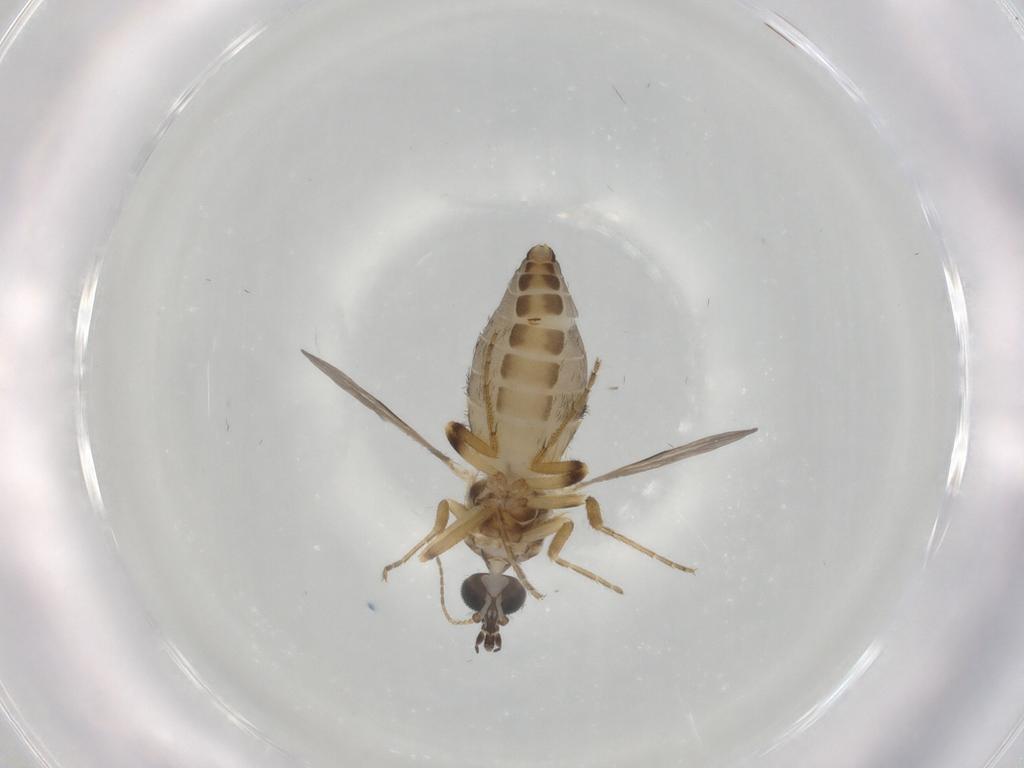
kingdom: Animalia
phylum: Arthropoda
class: Insecta
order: Diptera
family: Ceratopogonidae
